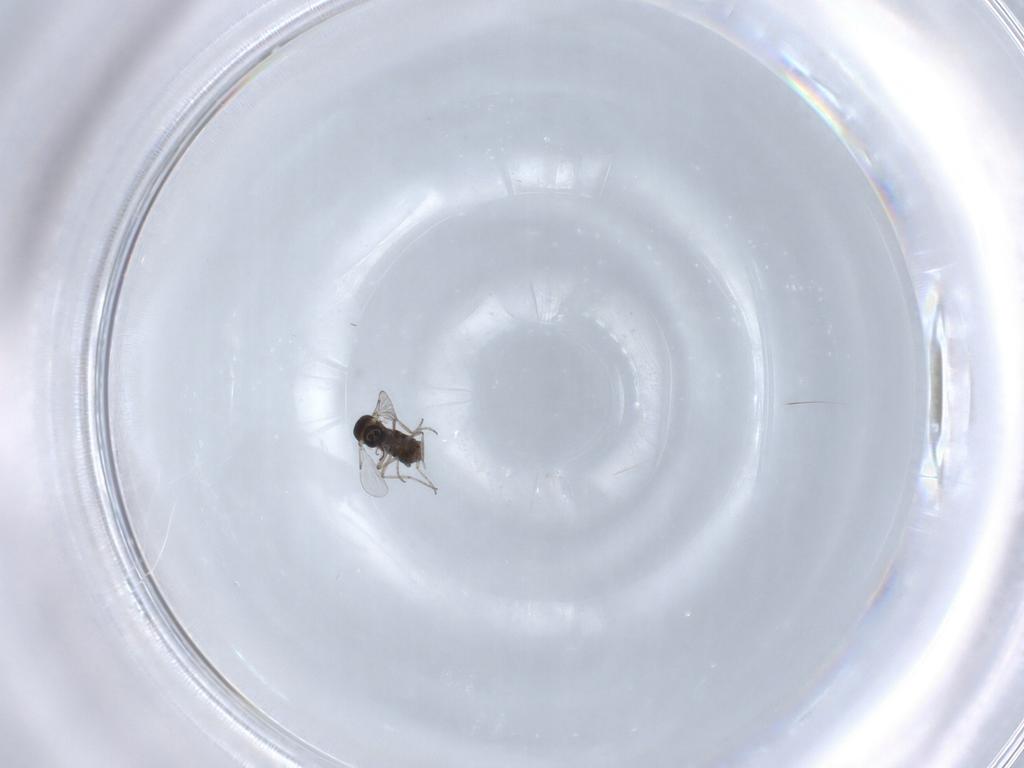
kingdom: Animalia
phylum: Arthropoda
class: Insecta
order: Diptera
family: Ceratopogonidae
